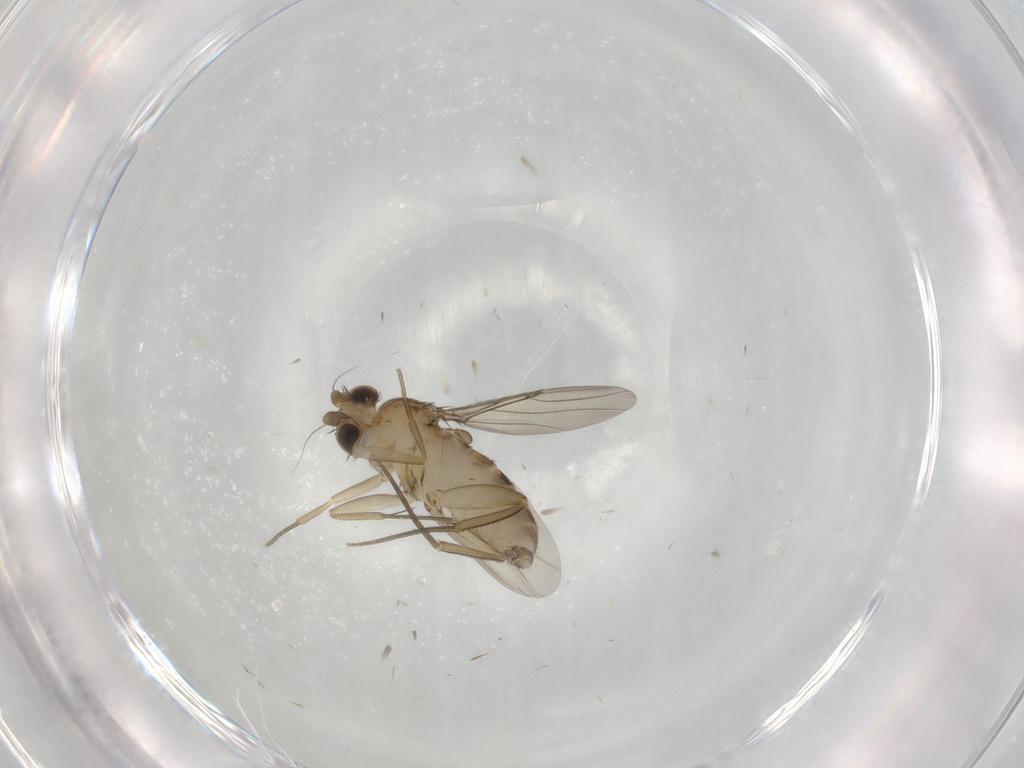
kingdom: Animalia
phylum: Arthropoda
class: Insecta
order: Diptera
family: Phoridae
